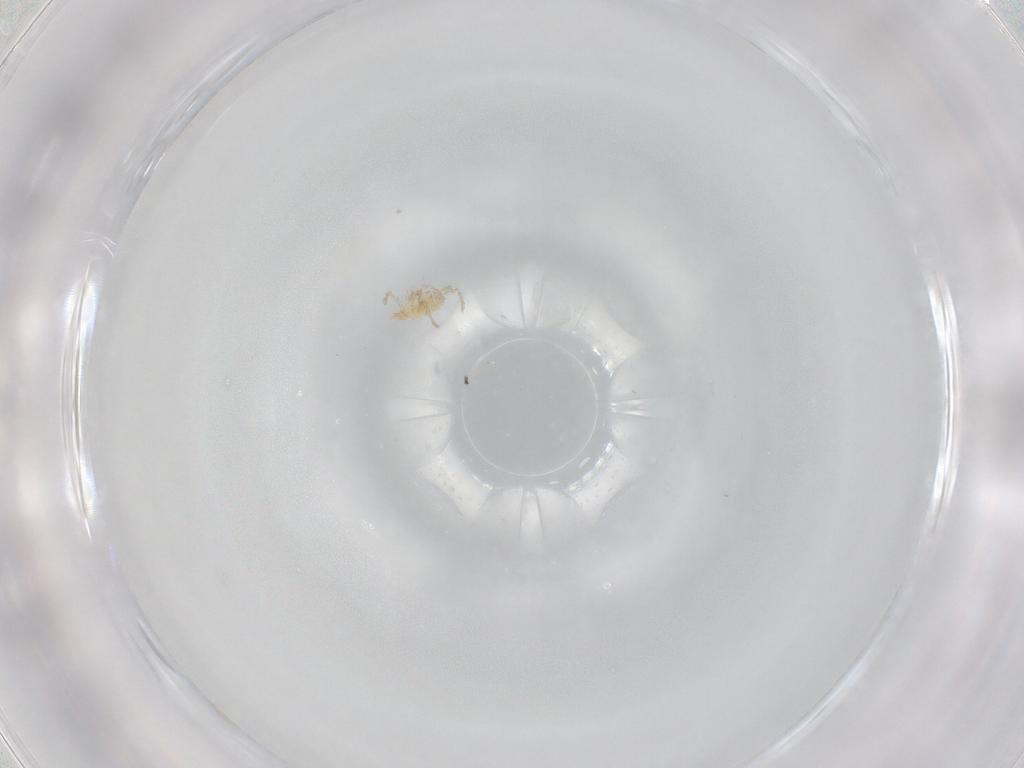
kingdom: Animalia
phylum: Arthropoda
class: Arachnida
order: Trombidiformes
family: Erythraeidae
